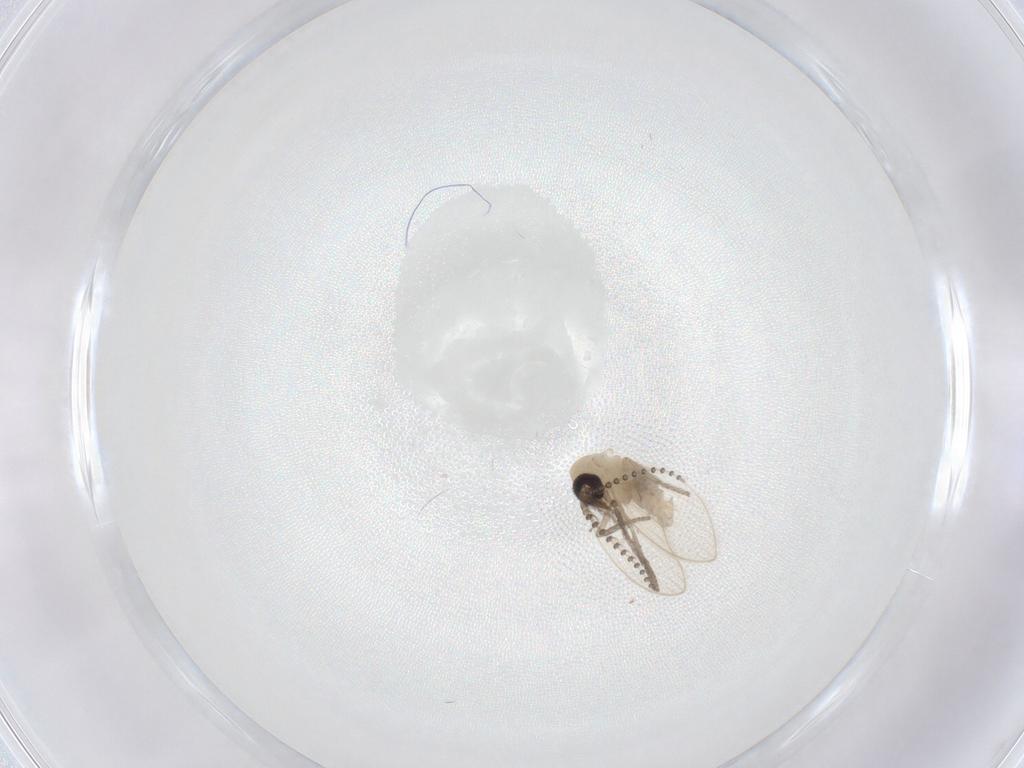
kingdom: Animalia
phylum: Arthropoda
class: Insecta
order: Diptera
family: Psychodidae
